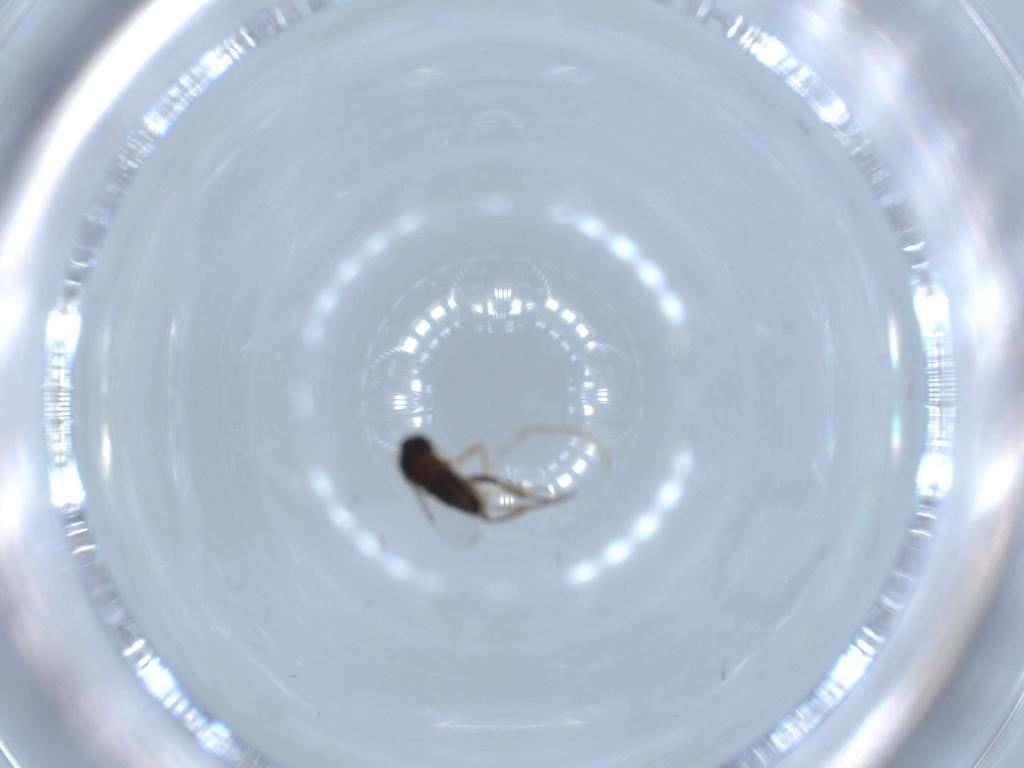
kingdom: Animalia
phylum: Arthropoda
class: Insecta
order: Diptera
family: Phoridae
